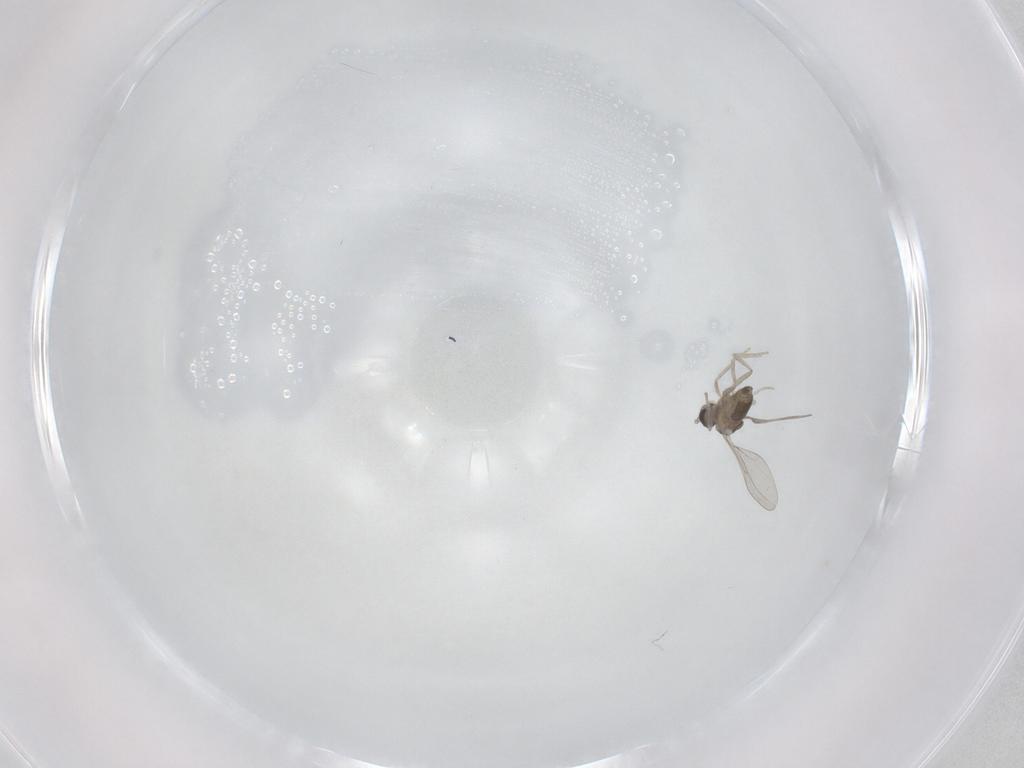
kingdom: Animalia
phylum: Arthropoda
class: Insecta
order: Diptera
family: Cecidomyiidae
